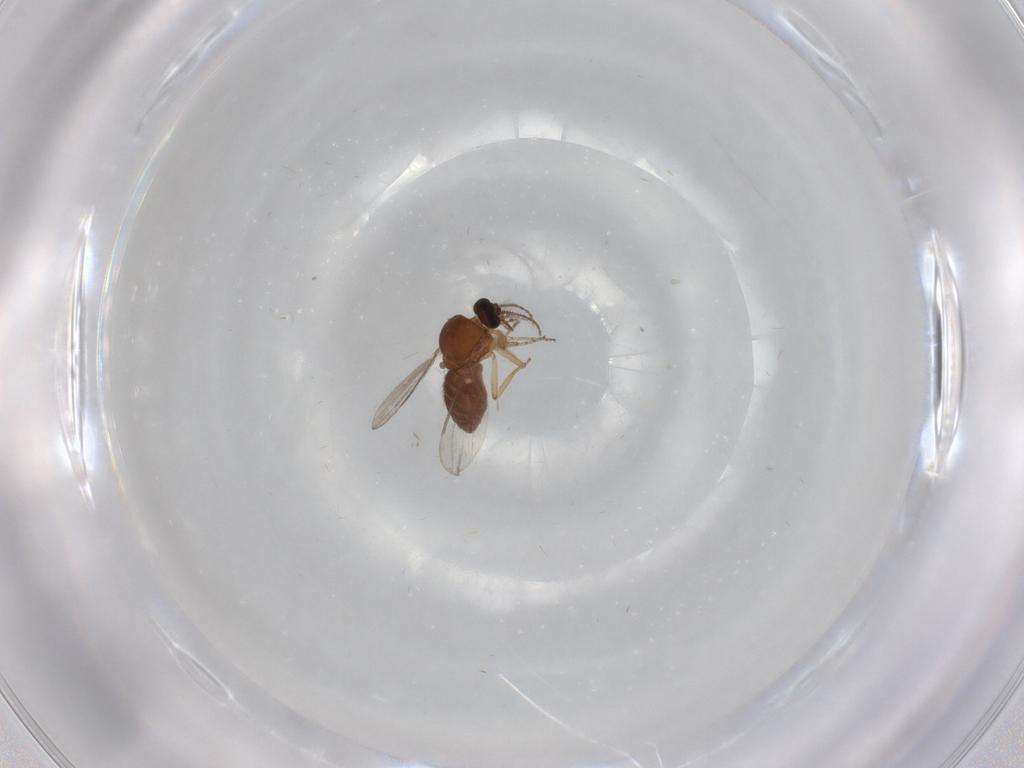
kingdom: Animalia
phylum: Arthropoda
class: Insecta
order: Diptera
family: Ceratopogonidae
